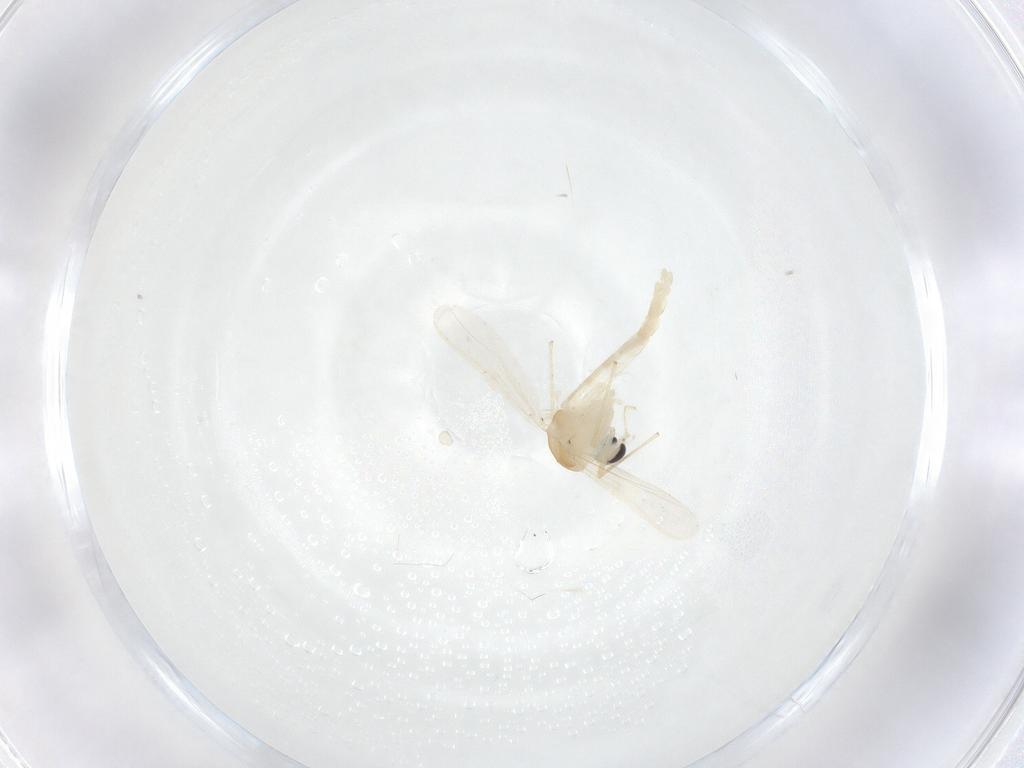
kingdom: Animalia
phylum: Arthropoda
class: Insecta
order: Diptera
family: Chironomidae
